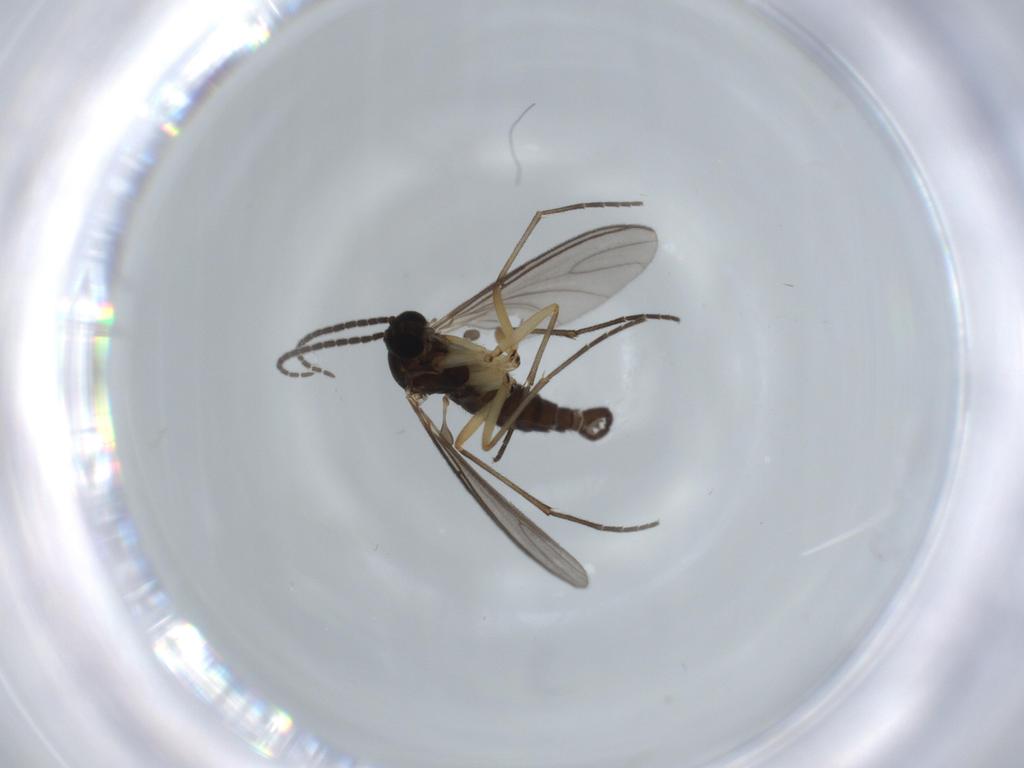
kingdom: Animalia
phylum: Arthropoda
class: Insecta
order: Diptera
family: Sciaridae
